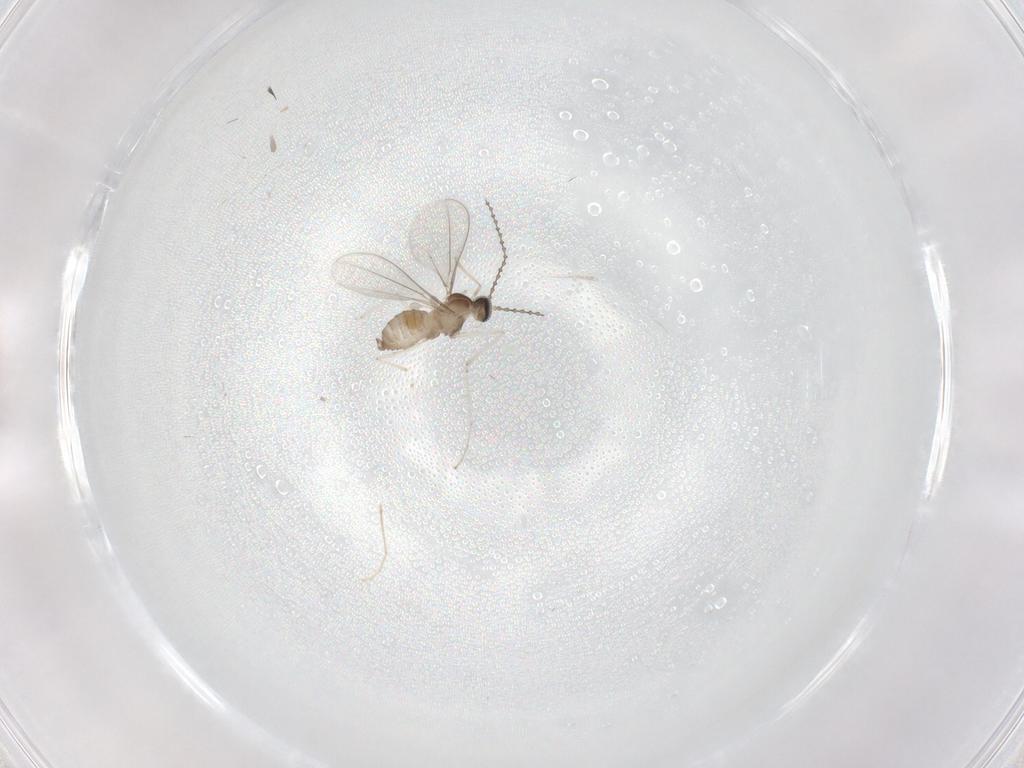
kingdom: Animalia
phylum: Arthropoda
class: Insecta
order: Diptera
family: Cecidomyiidae
